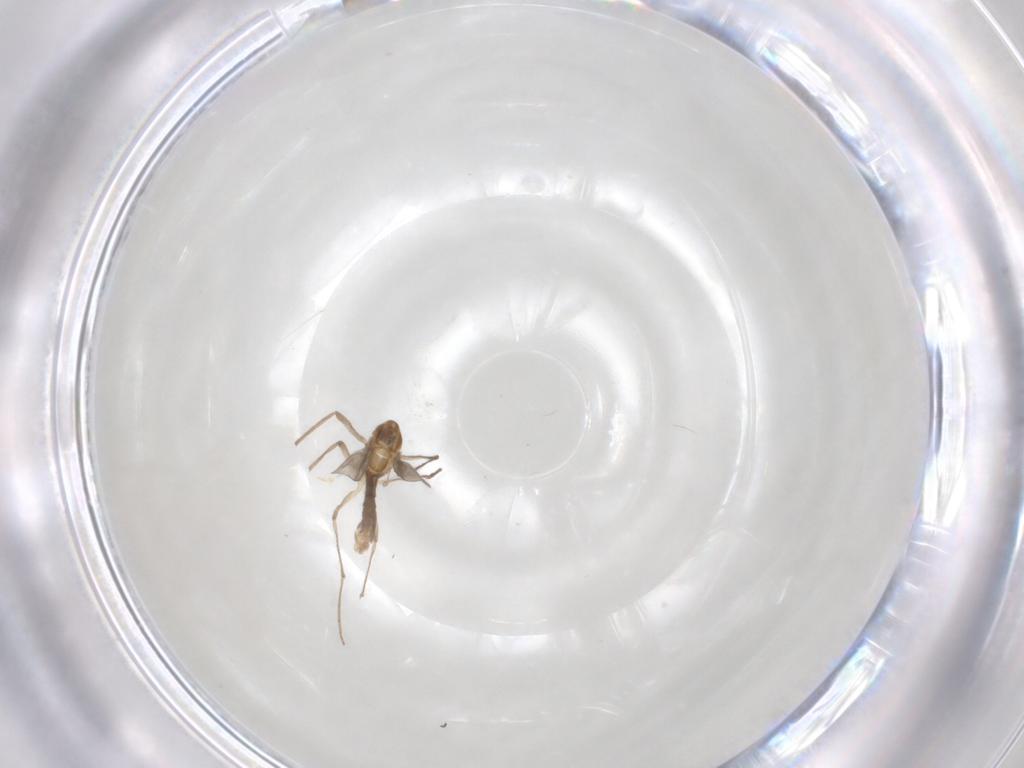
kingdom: Animalia
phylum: Arthropoda
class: Insecta
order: Diptera
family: Chironomidae
